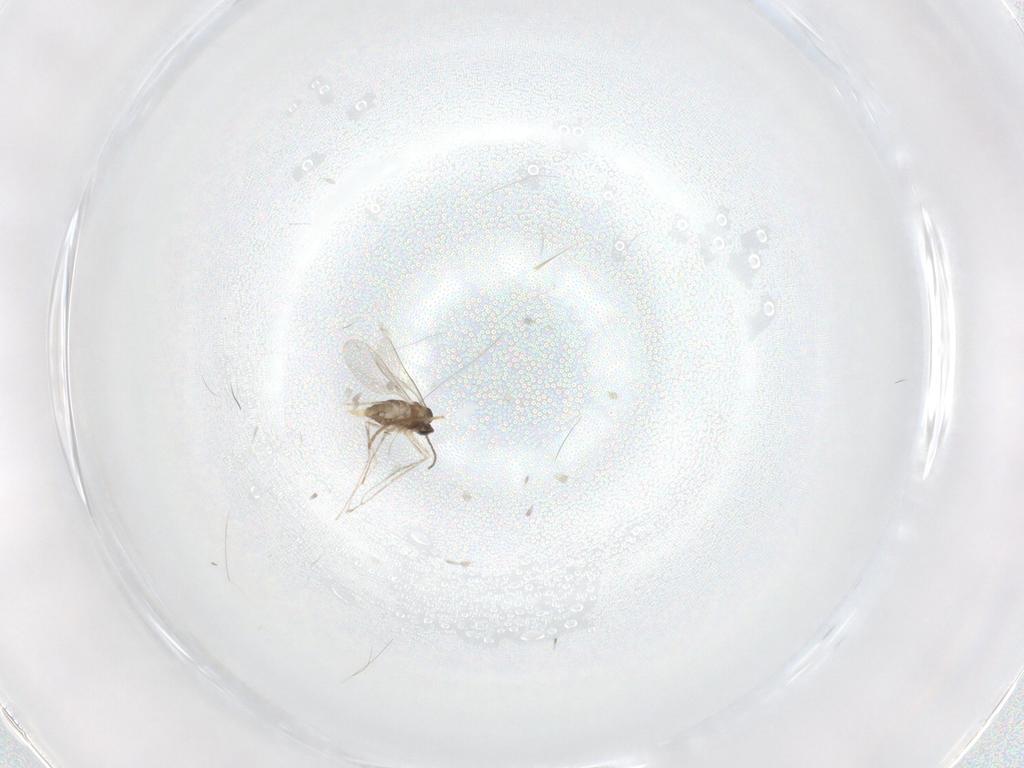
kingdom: Animalia
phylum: Arthropoda
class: Insecta
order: Diptera
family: Cecidomyiidae
